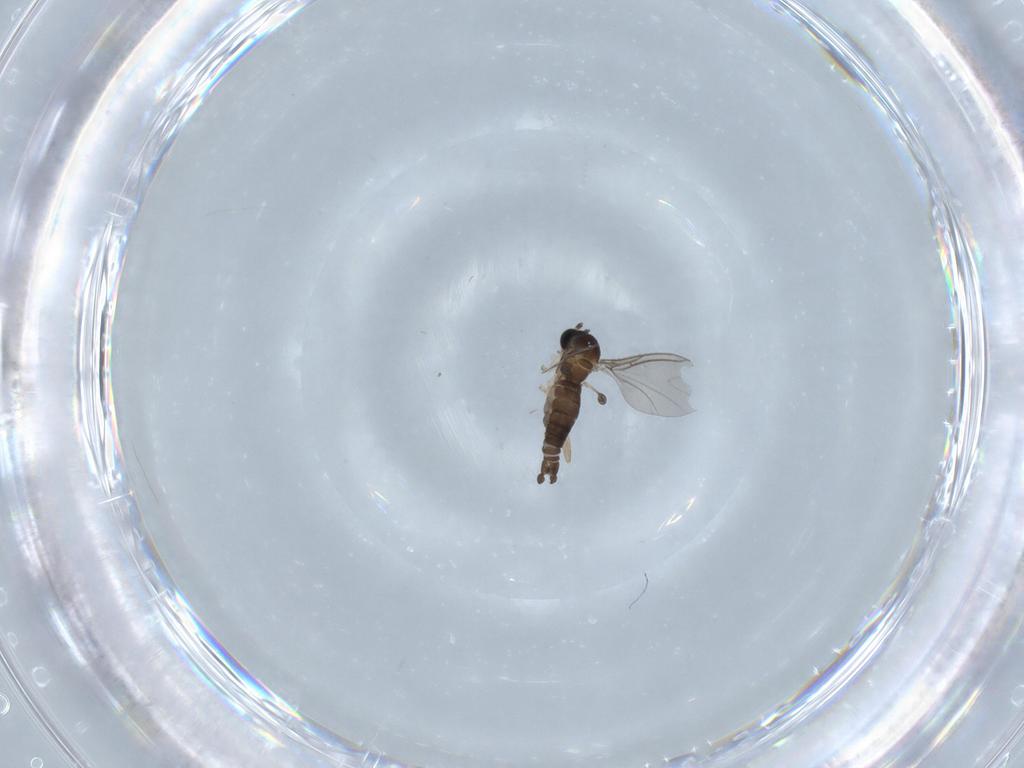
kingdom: Animalia
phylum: Arthropoda
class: Insecta
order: Diptera
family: Sciaridae
